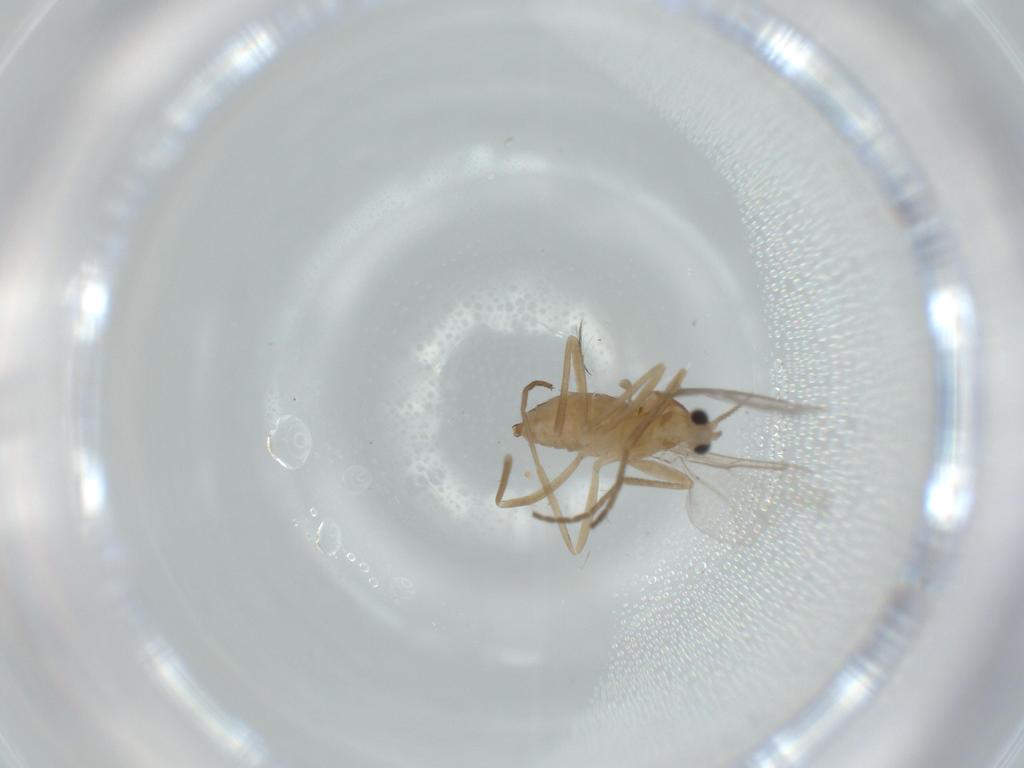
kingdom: Animalia
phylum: Arthropoda
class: Insecta
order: Diptera
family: Cecidomyiidae
